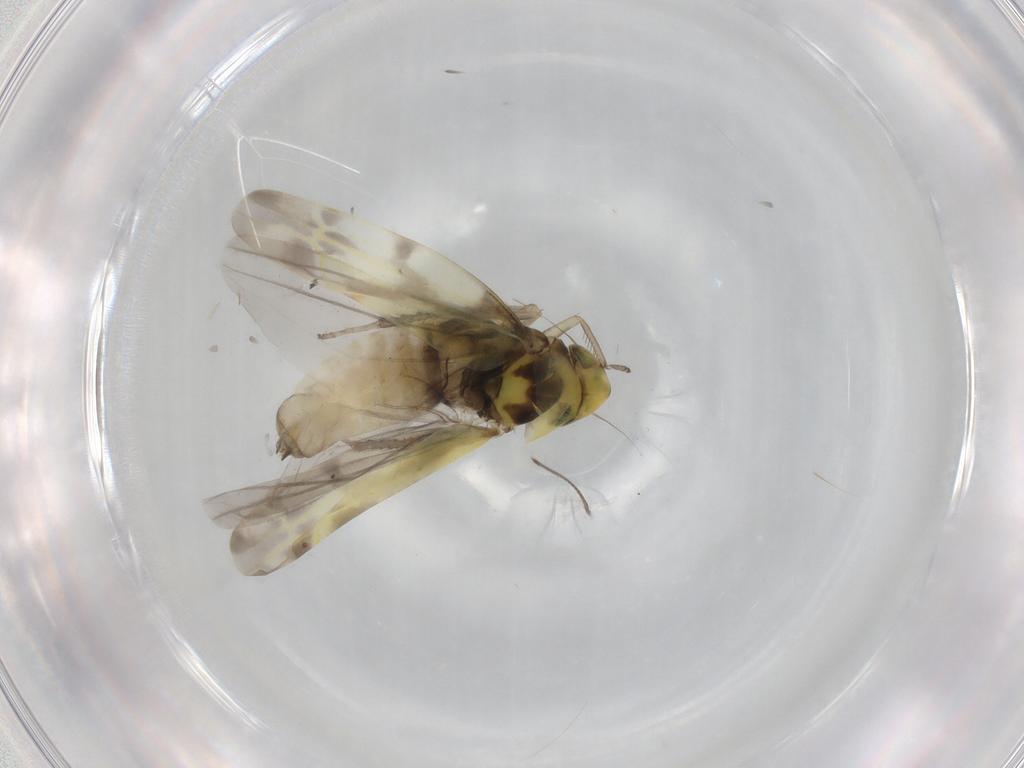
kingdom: Animalia
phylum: Arthropoda
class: Insecta
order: Hemiptera
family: Cicadellidae
